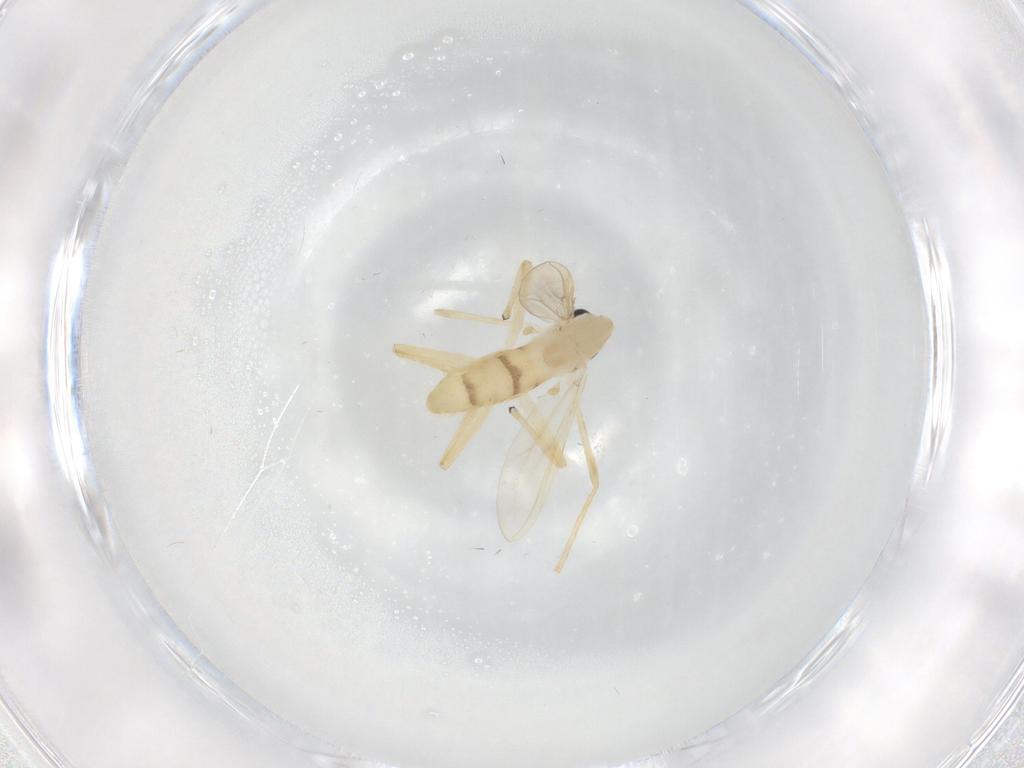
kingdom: Animalia
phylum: Arthropoda
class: Insecta
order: Diptera
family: Chironomidae
